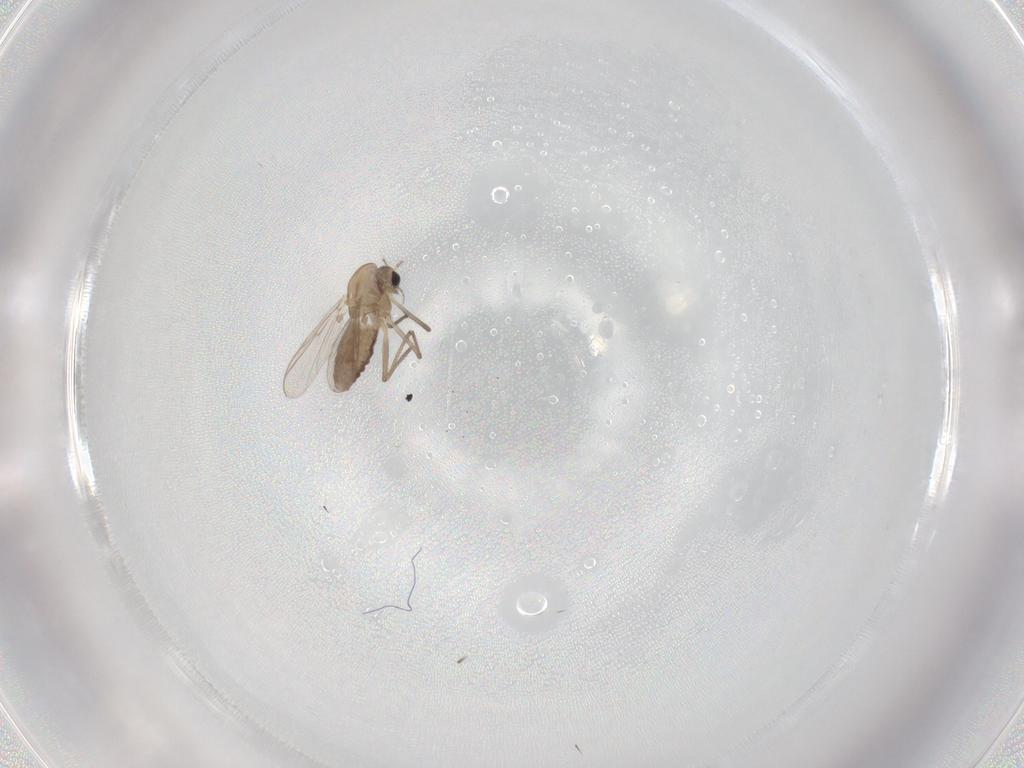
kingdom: Animalia
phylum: Arthropoda
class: Insecta
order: Diptera
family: Chironomidae
